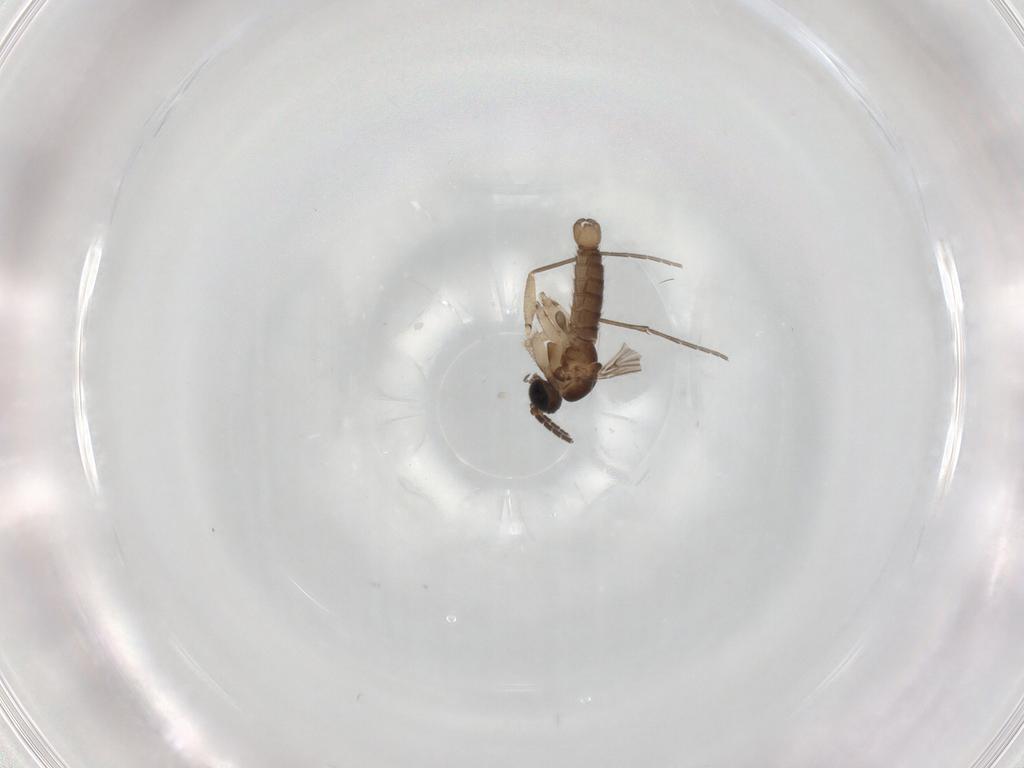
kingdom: Animalia
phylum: Arthropoda
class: Insecta
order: Diptera
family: Sciaridae
